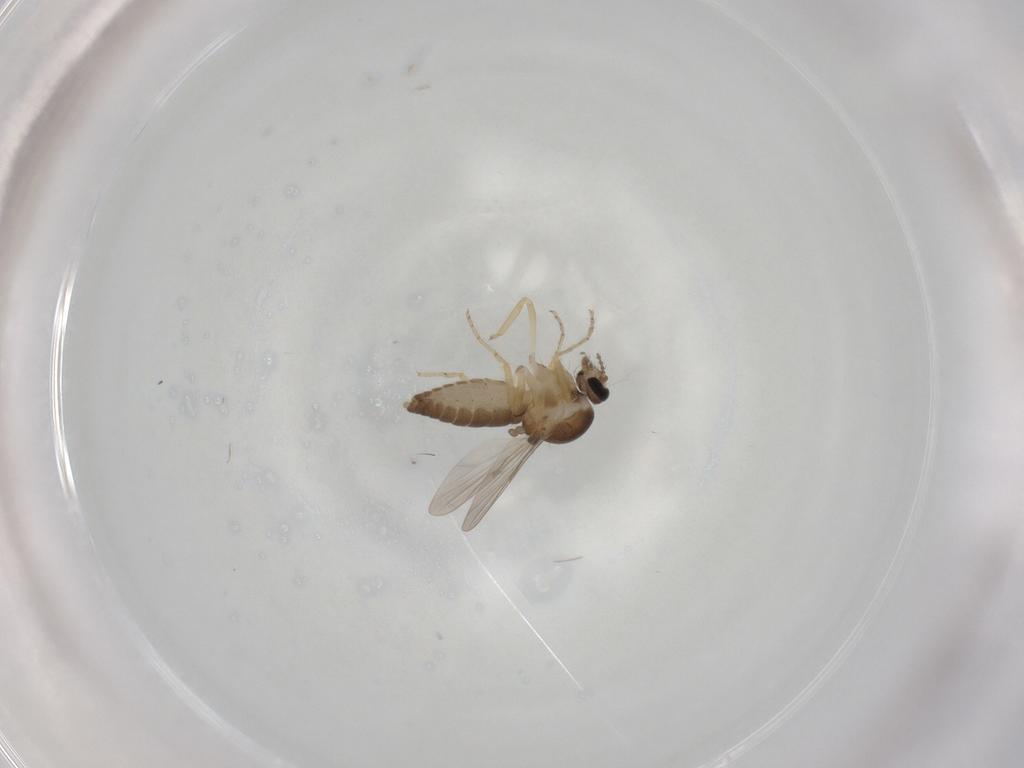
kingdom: Animalia
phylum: Arthropoda
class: Insecta
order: Diptera
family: Ceratopogonidae
